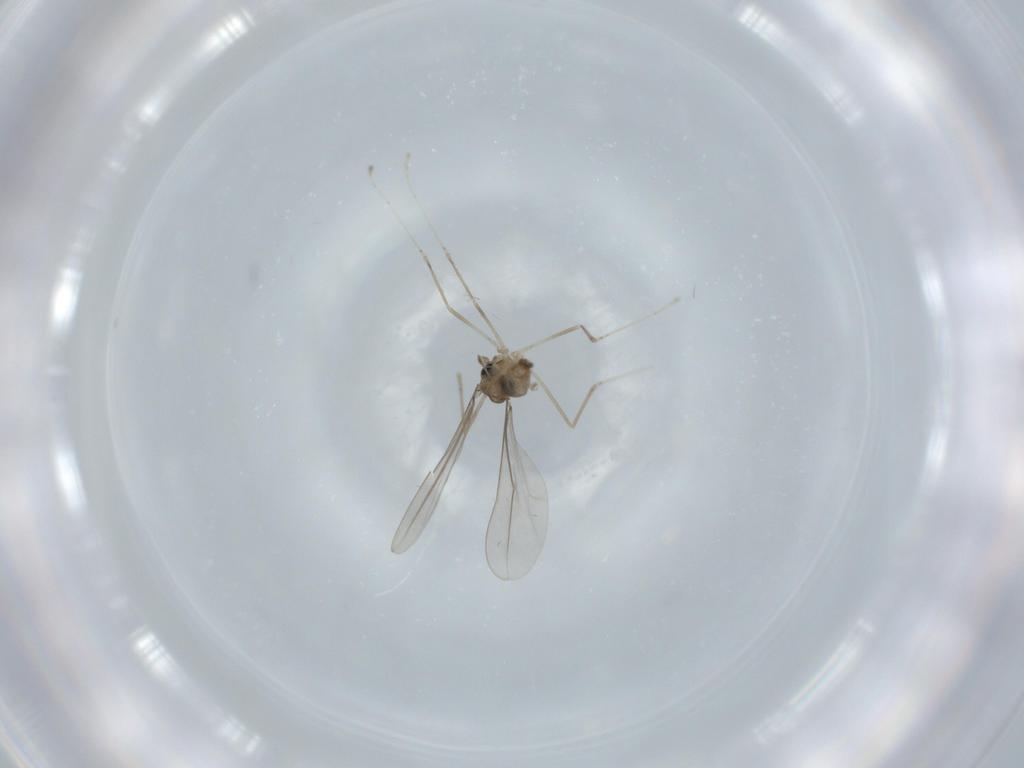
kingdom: Animalia
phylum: Arthropoda
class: Insecta
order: Diptera
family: Cecidomyiidae
